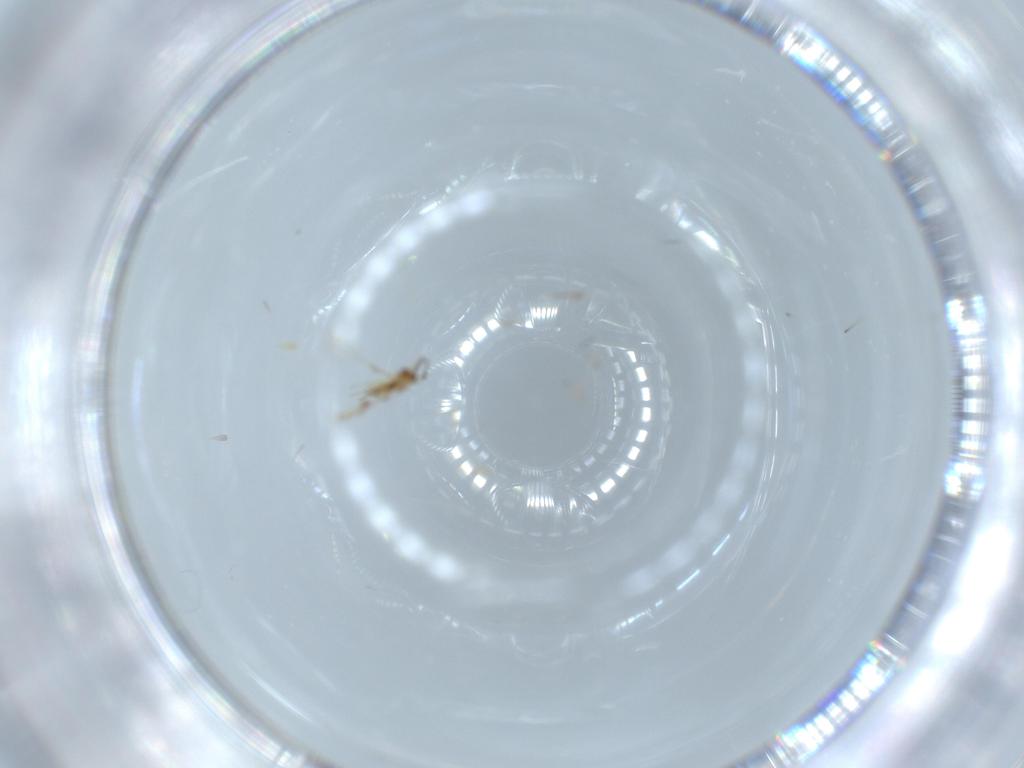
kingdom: Animalia
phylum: Arthropoda
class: Insecta
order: Hymenoptera
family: Mymaridae
